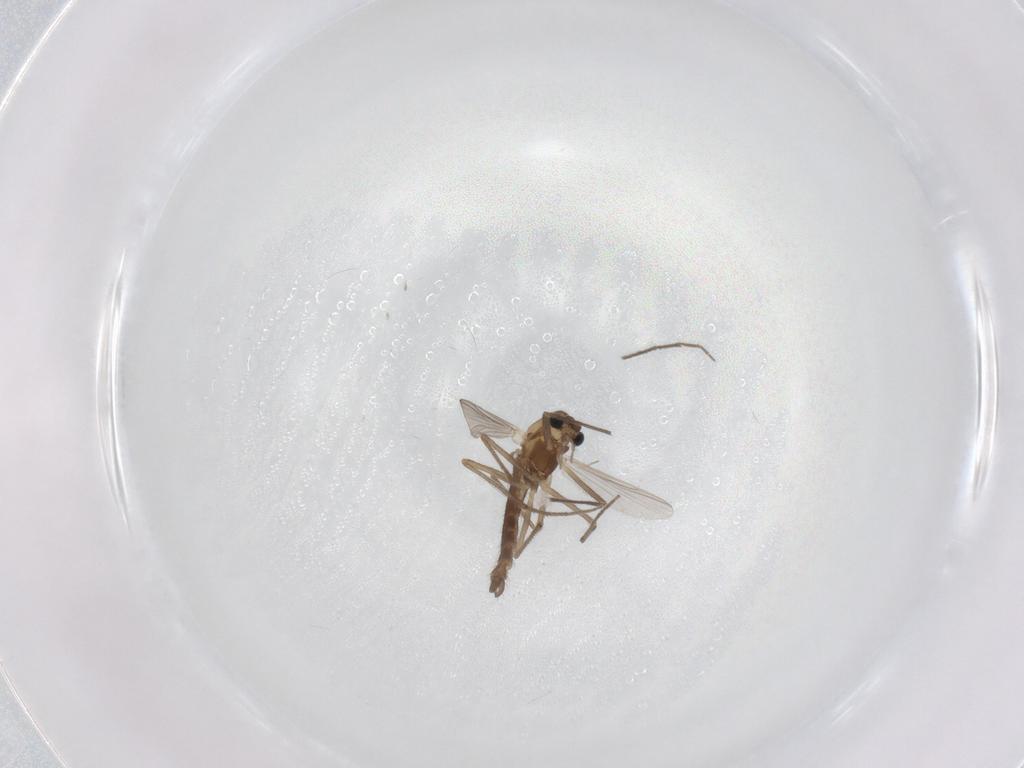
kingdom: Animalia
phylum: Arthropoda
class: Insecta
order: Diptera
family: Chironomidae
